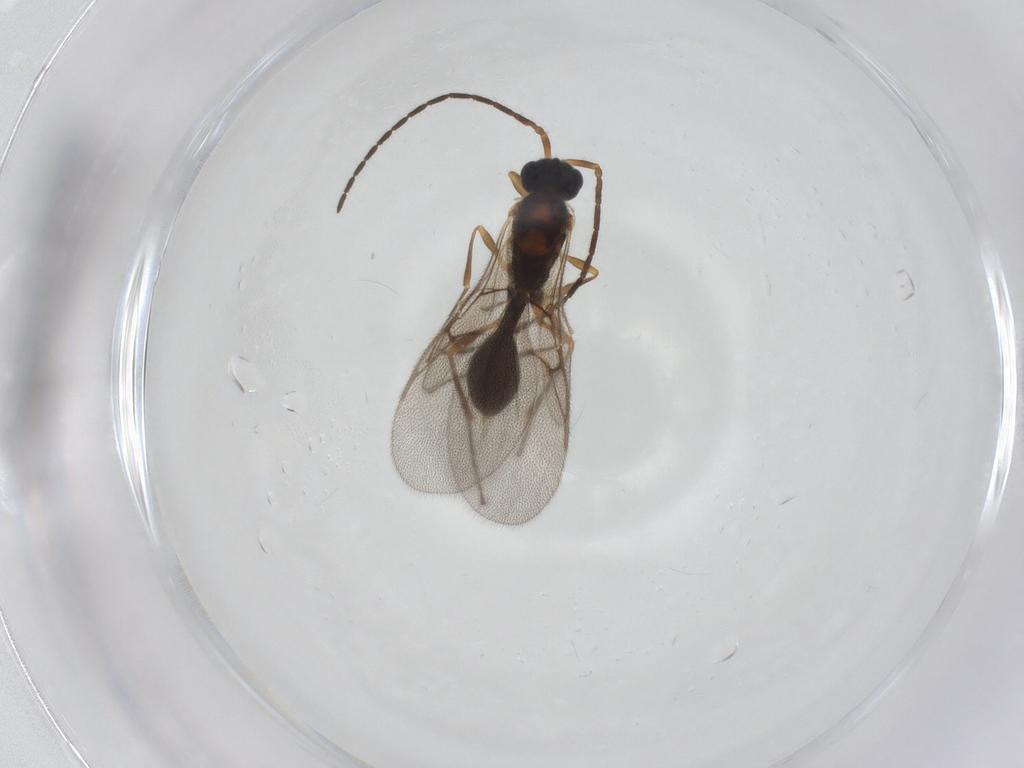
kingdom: Animalia
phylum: Arthropoda
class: Insecta
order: Hymenoptera
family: Diapriidae
